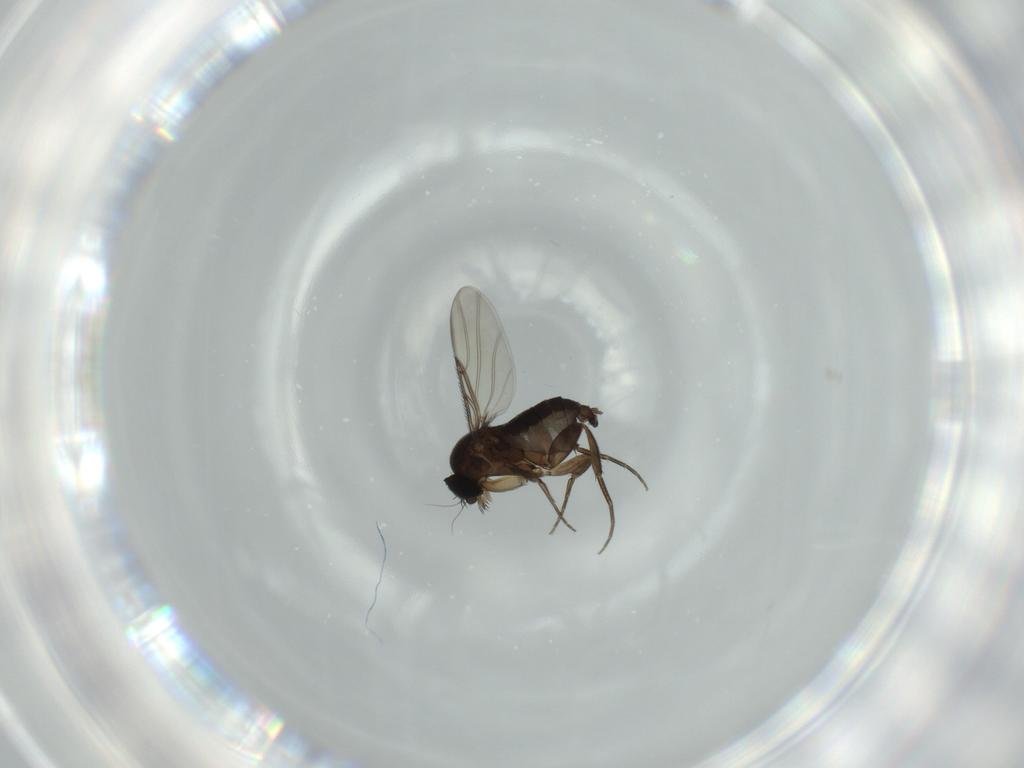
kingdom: Animalia
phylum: Arthropoda
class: Insecta
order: Diptera
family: Phoridae
